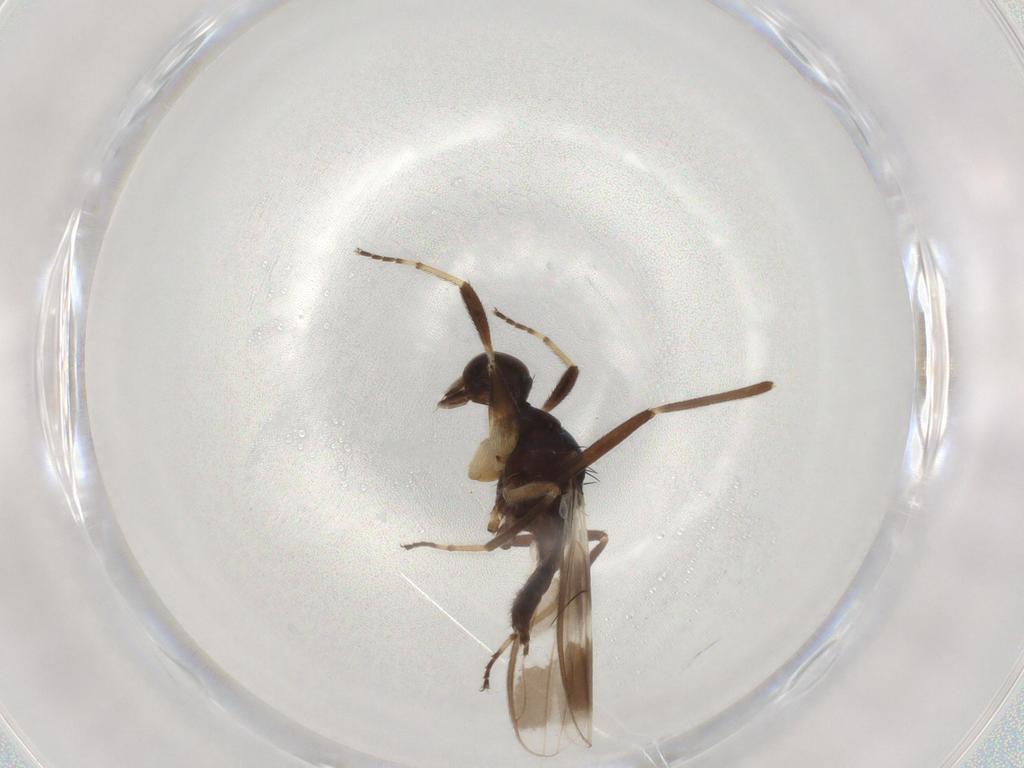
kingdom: Animalia
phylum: Arthropoda
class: Insecta
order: Diptera
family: Hybotidae
